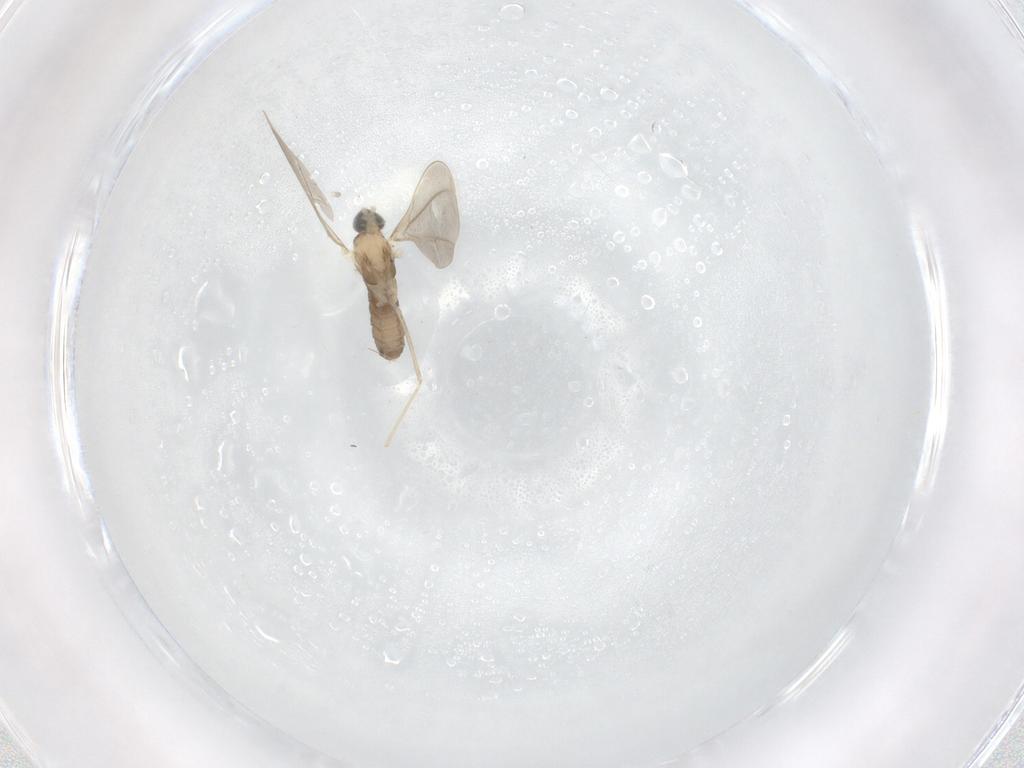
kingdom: Animalia
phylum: Arthropoda
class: Insecta
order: Diptera
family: Cecidomyiidae
